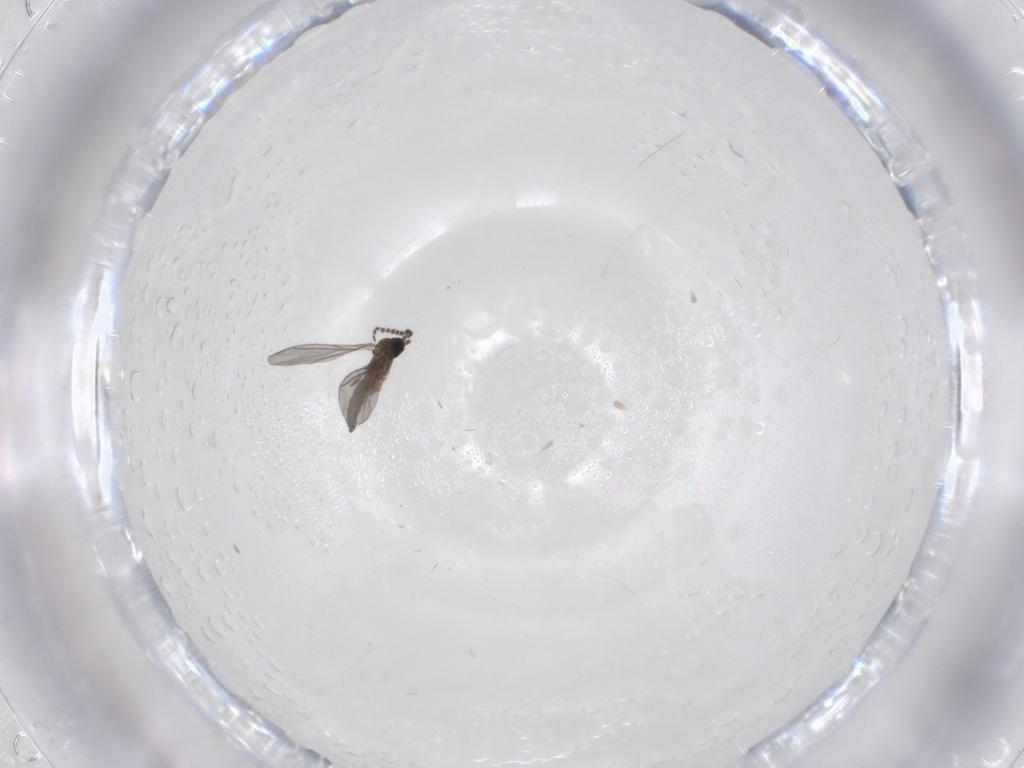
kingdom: Animalia
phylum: Arthropoda
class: Insecta
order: Diptera
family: Sciaridae
